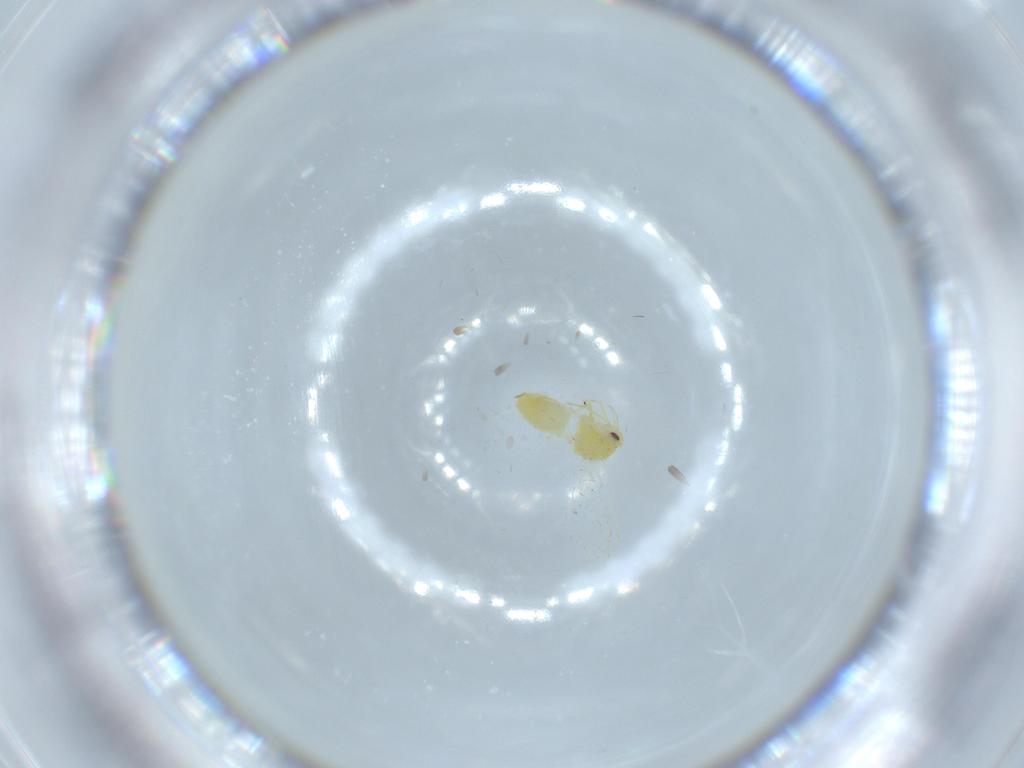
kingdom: Animalia
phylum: Arthropoda
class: Insecta
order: Hemiptera
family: Aleyrodidae
